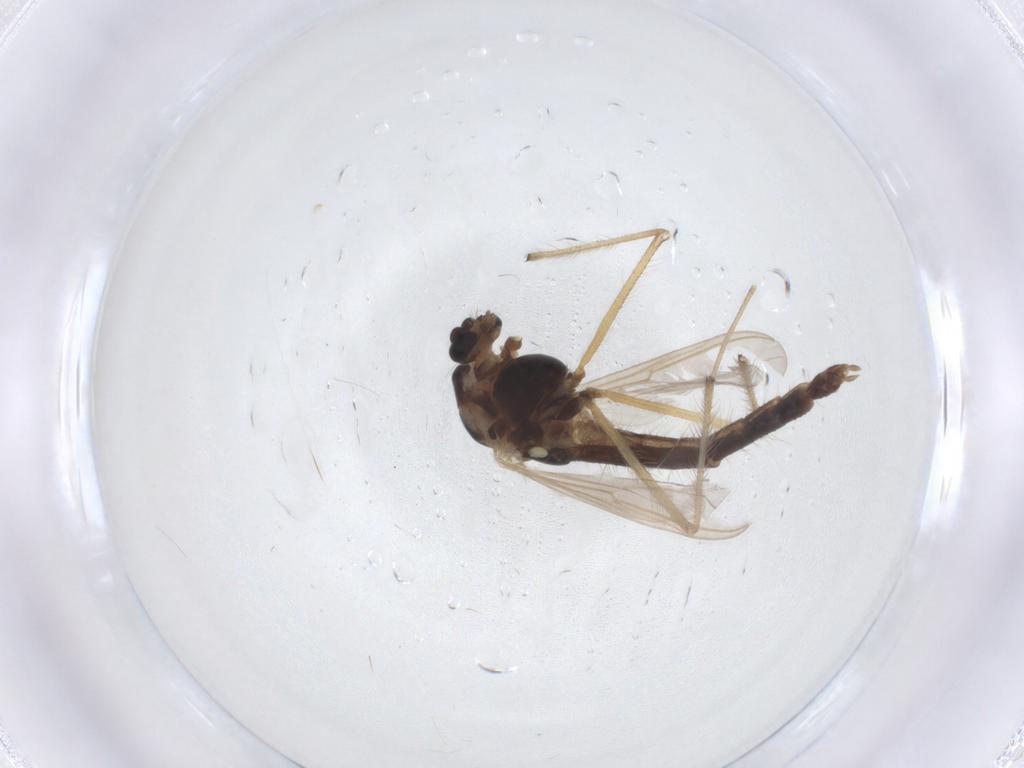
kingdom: Animalia
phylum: Arthropoda
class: Insecta
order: Diptera
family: Chironomidae
